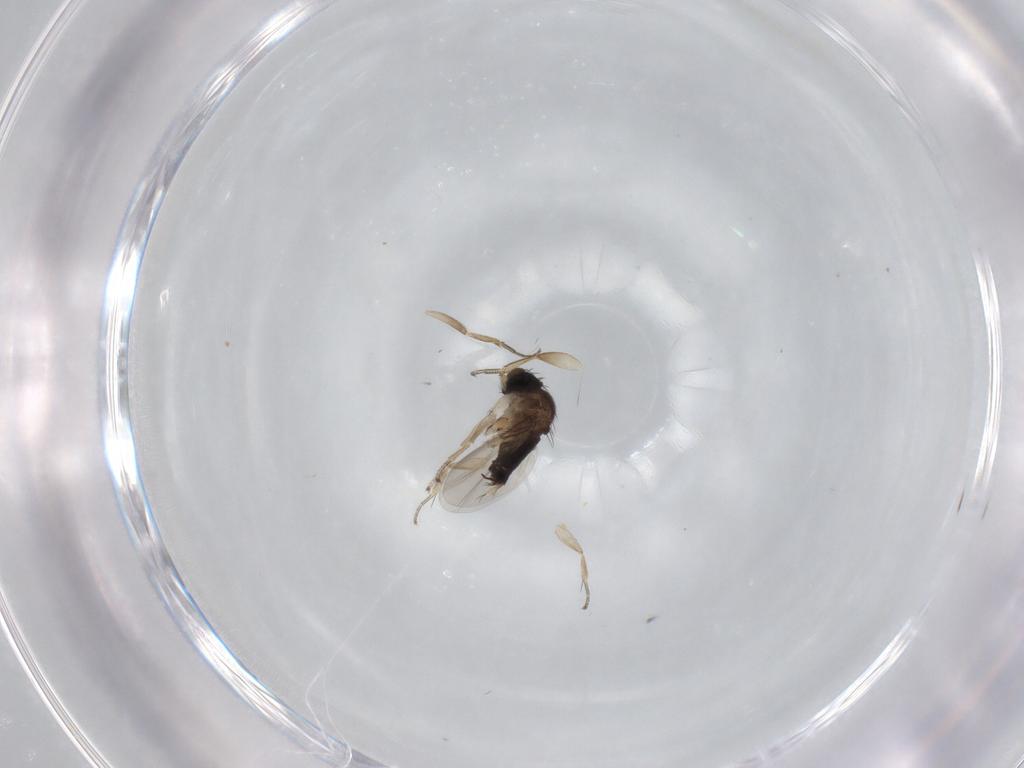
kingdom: Animalia
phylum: Arthropoda
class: Insecta
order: Diptera
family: Phoridae
